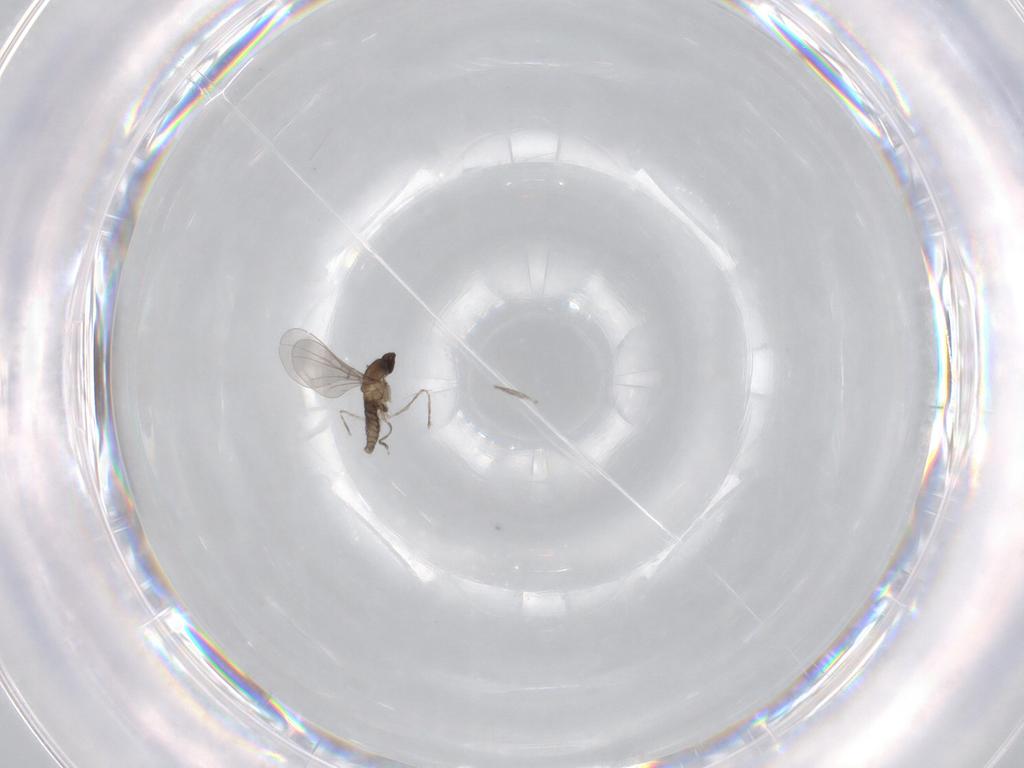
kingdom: Animalia
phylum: Arthropoda
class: Insecta
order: Diptera
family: Cecidomyiidae
